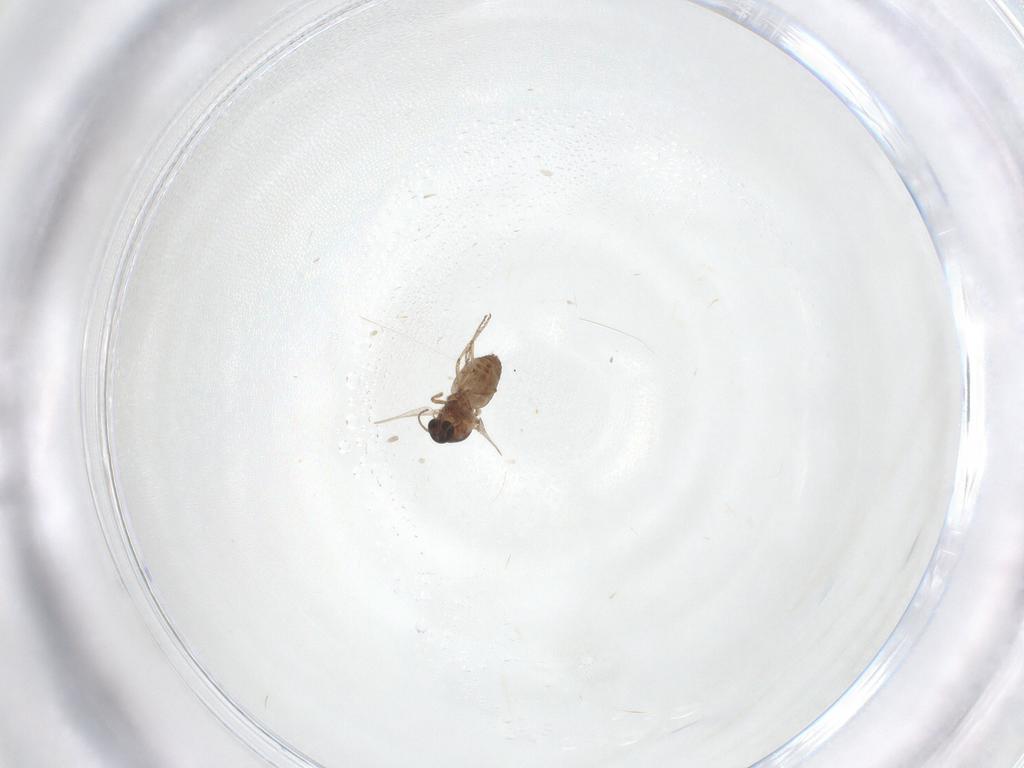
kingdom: Animalia
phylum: Arthropoda
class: Insecta
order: Diptera
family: Ceratopogonidae
